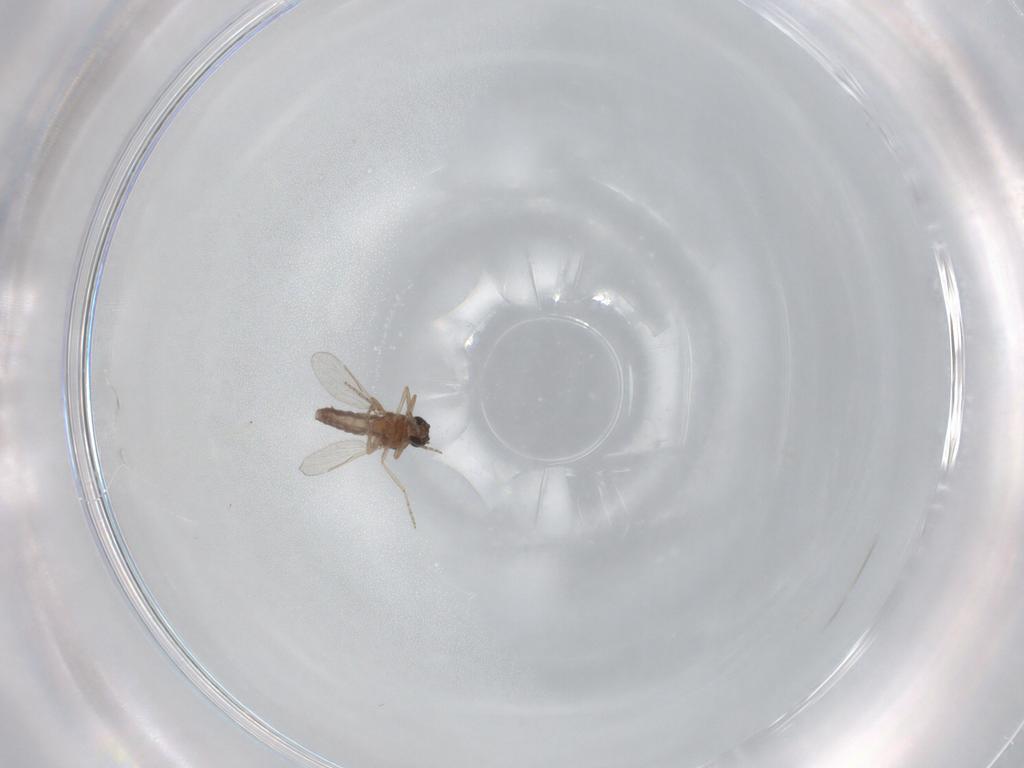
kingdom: Animalia
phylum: Arthropoda
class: Insecta
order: Diptera
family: Ceratopogonidae
